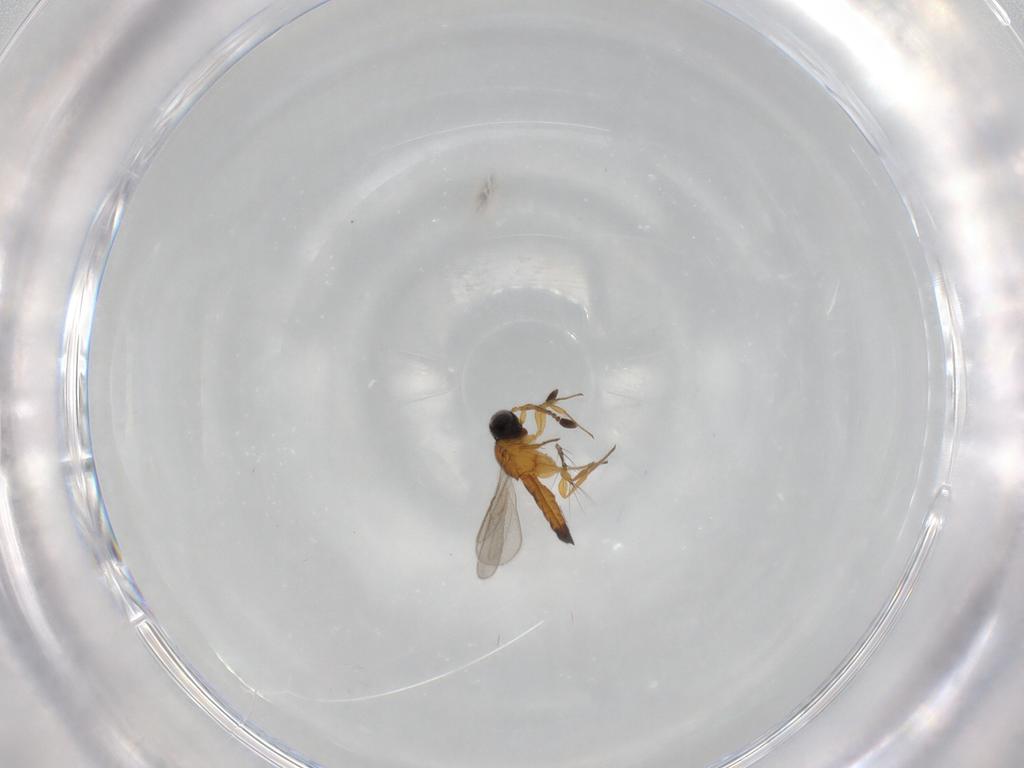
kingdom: Animalia
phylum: Arthropoda
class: Insecta
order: Hymenoptera
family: Scelionidae
